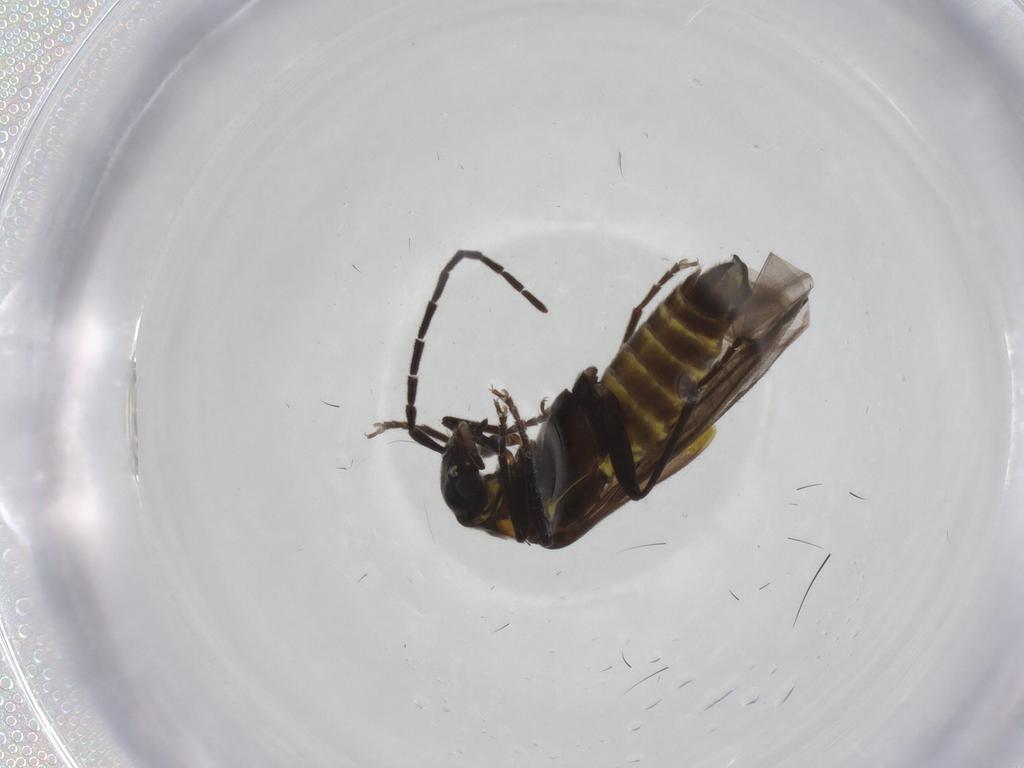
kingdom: Animalia
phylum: Arthropoda
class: Insecta
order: Coleoptera
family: Cantharidae
